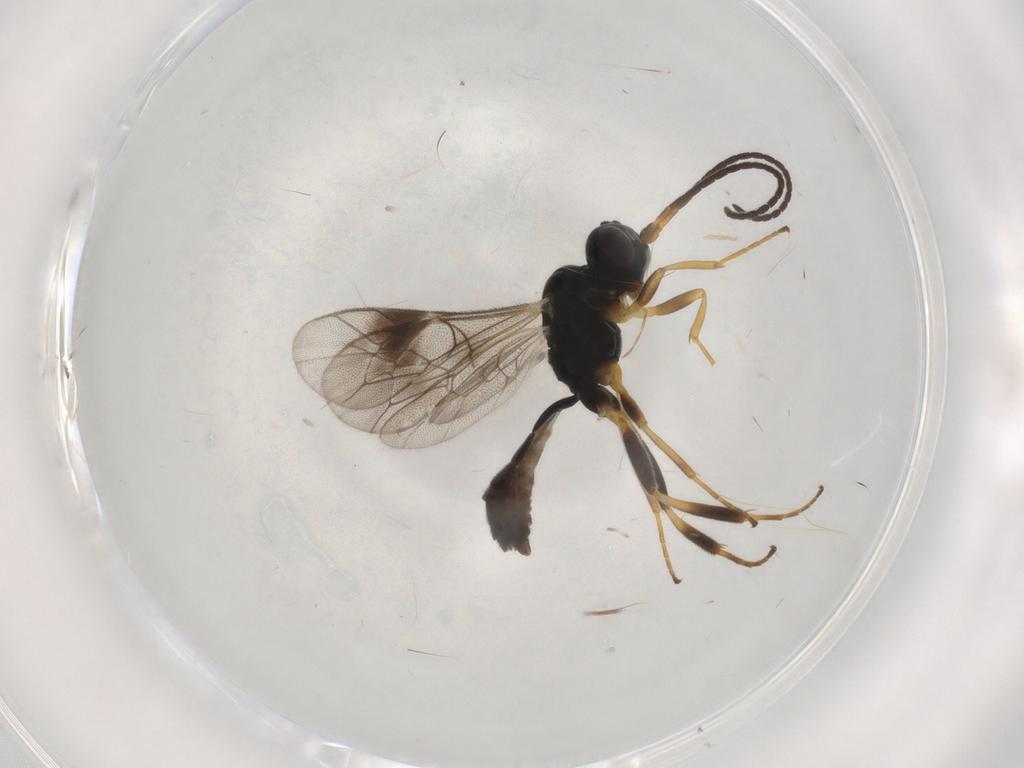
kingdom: Animalia
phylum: Arthropoda
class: Insecta
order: Hymenoptera
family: Ichneumonidae
